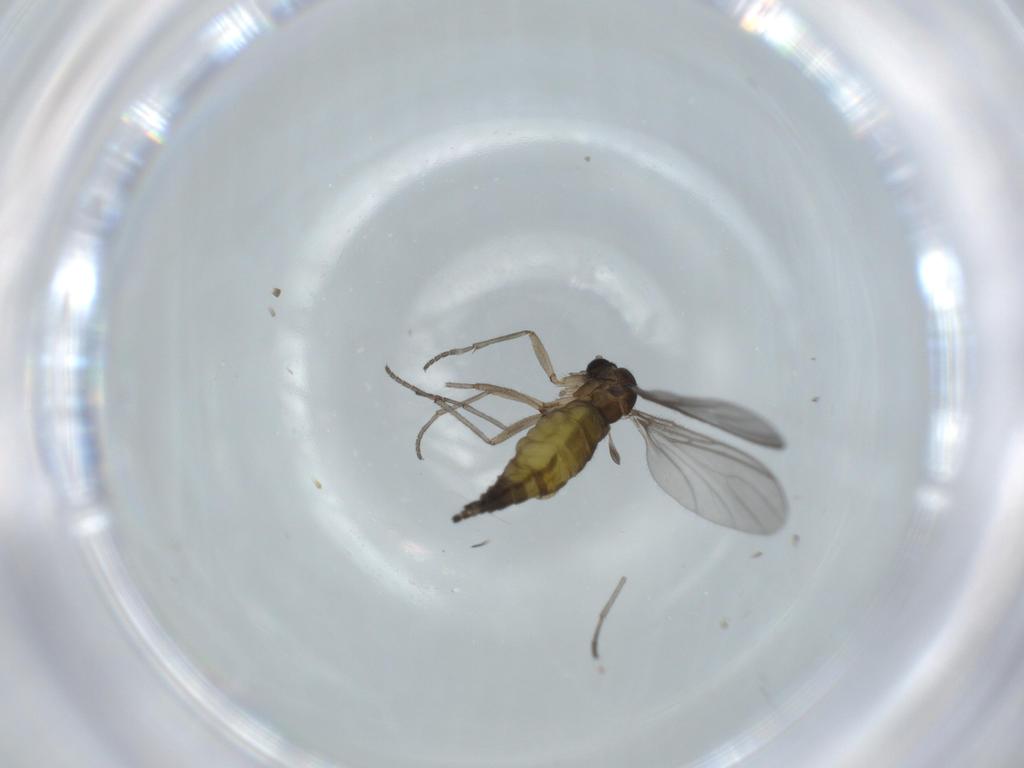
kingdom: Animalia
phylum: Arthropoda
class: Insecta
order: Diptera
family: Sciaridae
